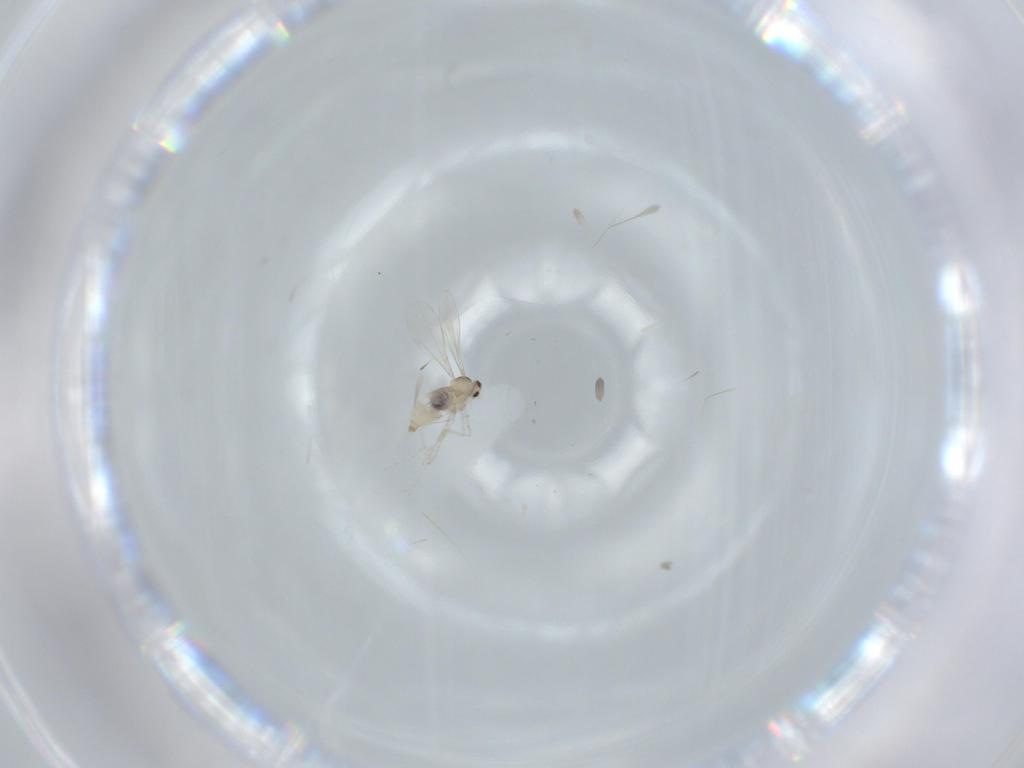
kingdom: Animalia
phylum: Arthropoda
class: Insecta
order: Diptera
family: Cecidomyiidae
